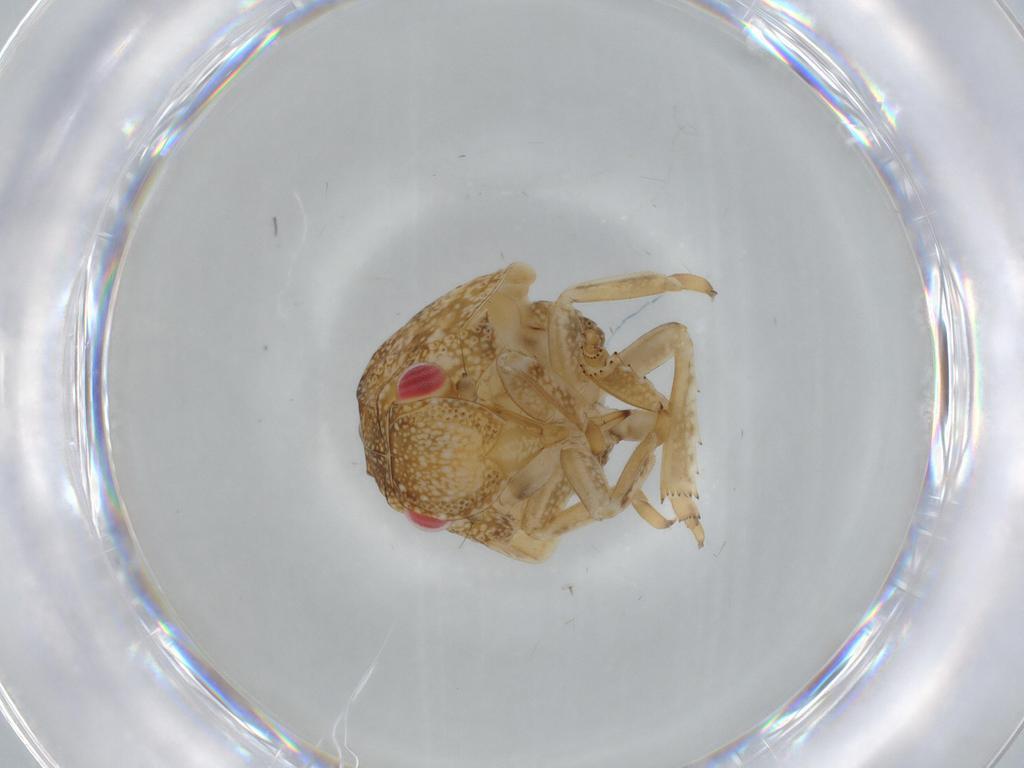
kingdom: Animalia
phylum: Arthropoda
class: Insecta
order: Hemiptera
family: Acanaloniidae
